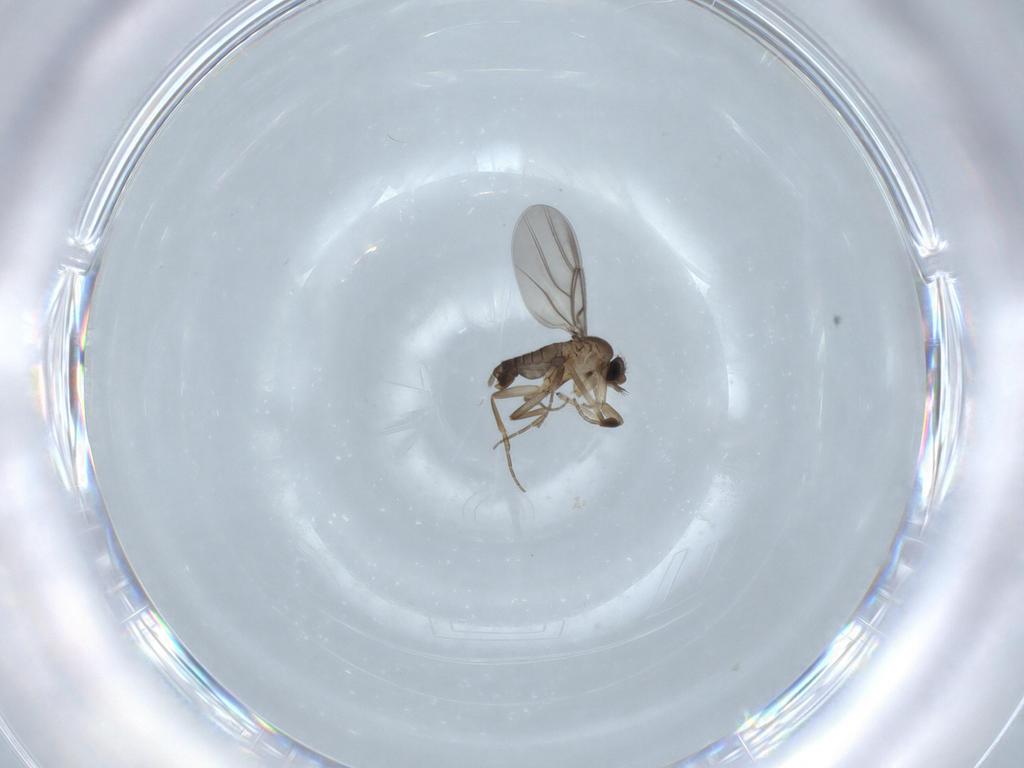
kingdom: Animalia
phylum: Arthropoda
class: Insecta
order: Diptera
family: Phoridae
